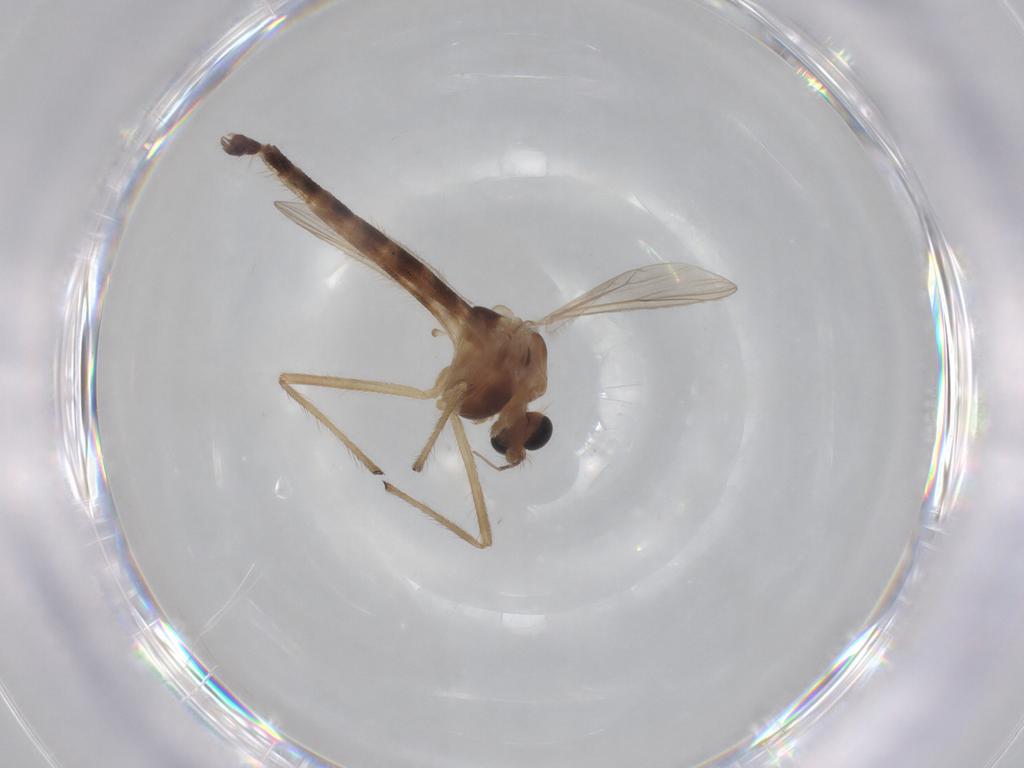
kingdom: Animalia
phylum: Arthropoda
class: Insecta
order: Diptera
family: Chironomidae
